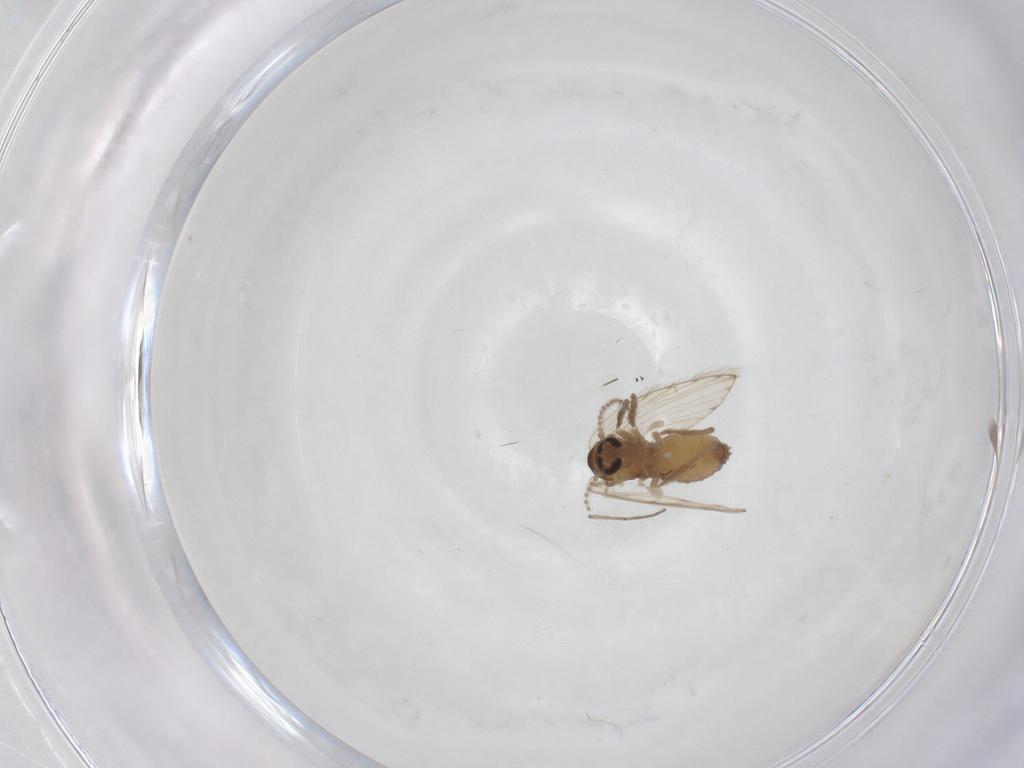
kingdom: Animalia
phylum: Arthropoda
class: Insecta
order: Diptera
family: Psychodidae
